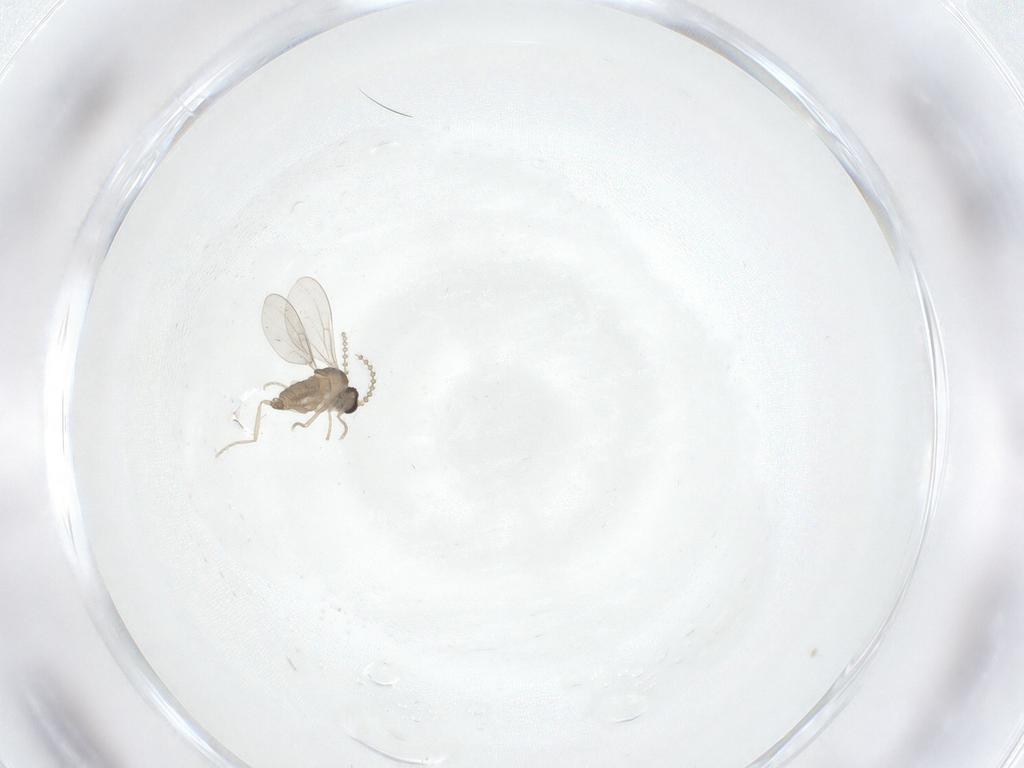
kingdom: Animalia
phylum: Arthropoda
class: Insecta
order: Diptera
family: Cecidomyiidae
